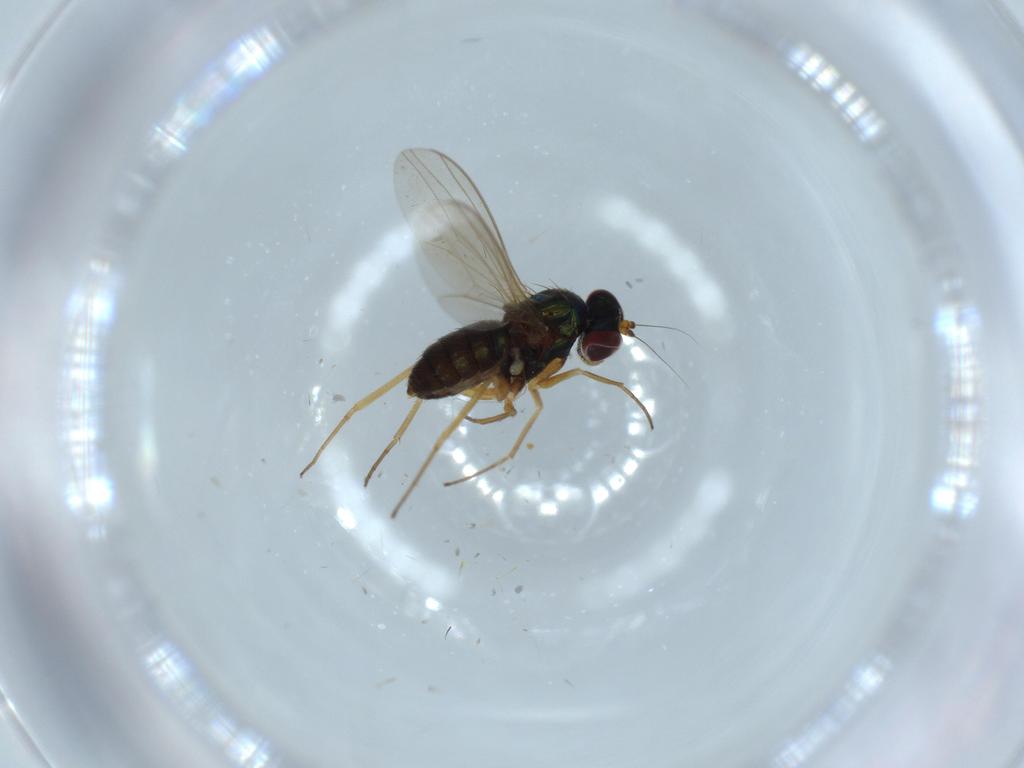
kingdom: Animalia
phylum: Arthropoda
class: Insecta
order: Diptera
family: Dolichopodidae
